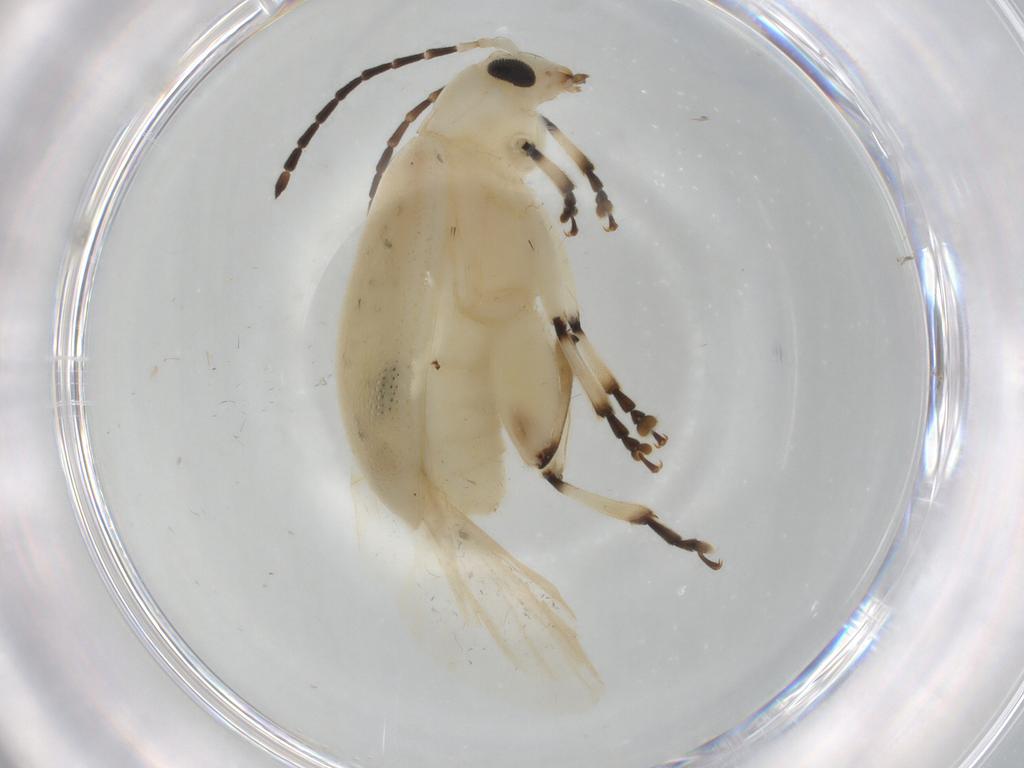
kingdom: Animalia
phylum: Arthropoda
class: Insecta
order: Coleoptera
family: Chrysomelidae
